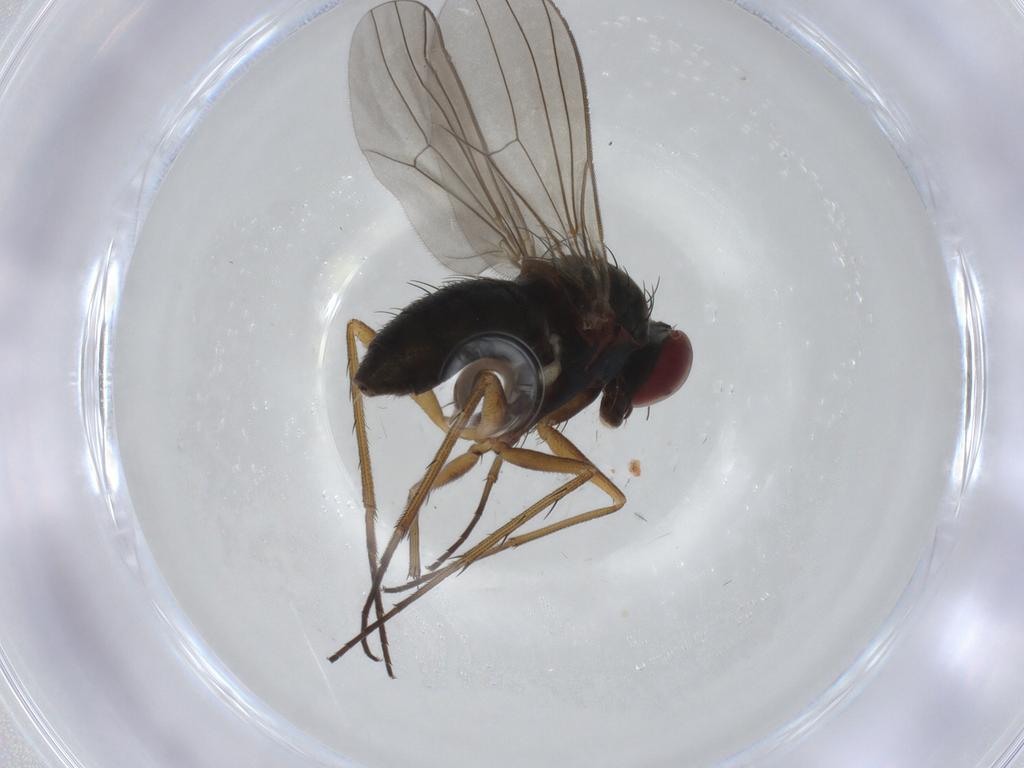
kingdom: Animalia
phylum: Arthropoda
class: Insecta
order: Diptera
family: Dolichopodidae
